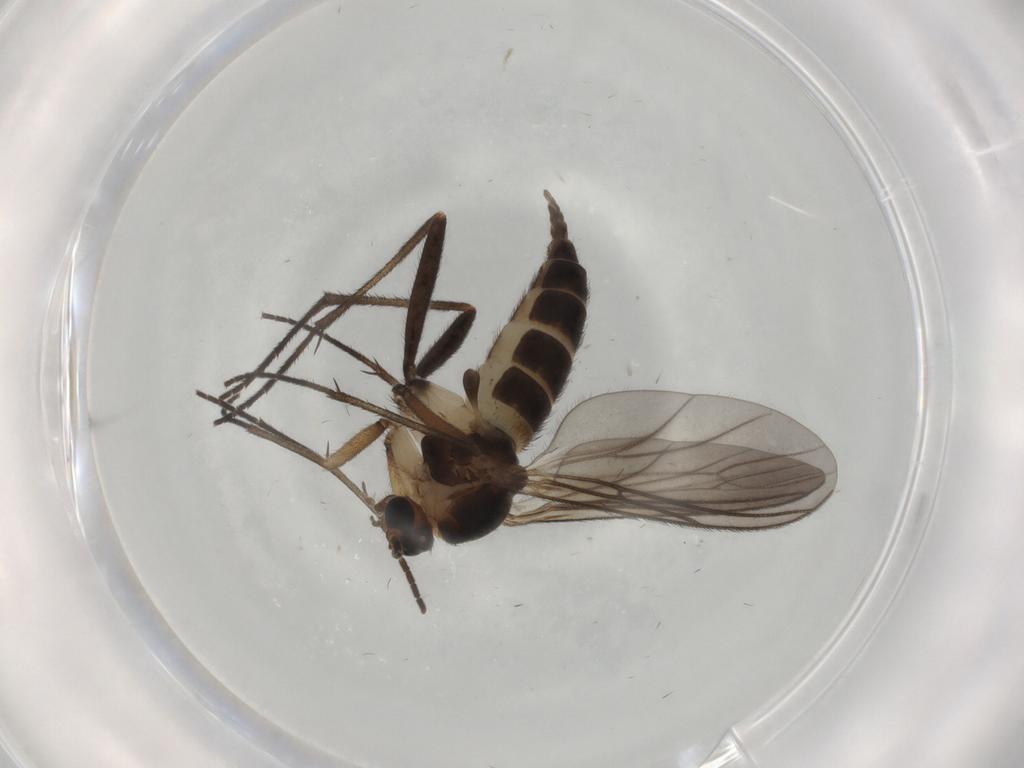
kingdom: Animalia
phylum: Arthropoda
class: Insecta
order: Diptera
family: Sciaridae
